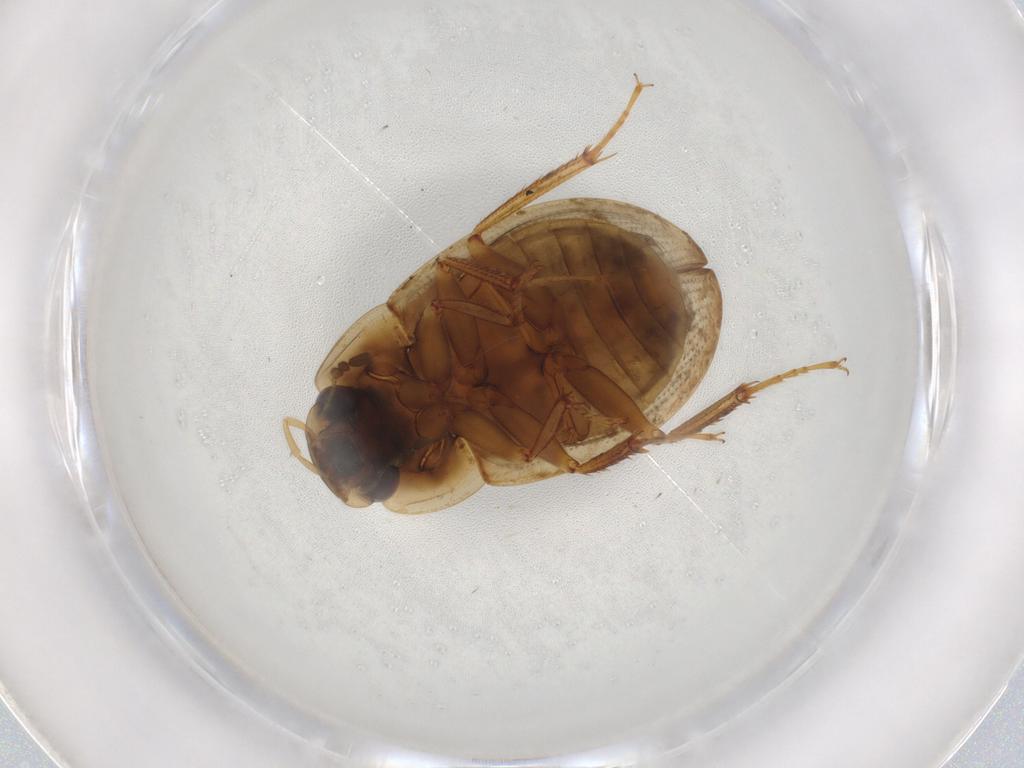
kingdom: Animalia
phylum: Arthropoda
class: Insecta
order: Coleoptera
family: Hydrophilidae
